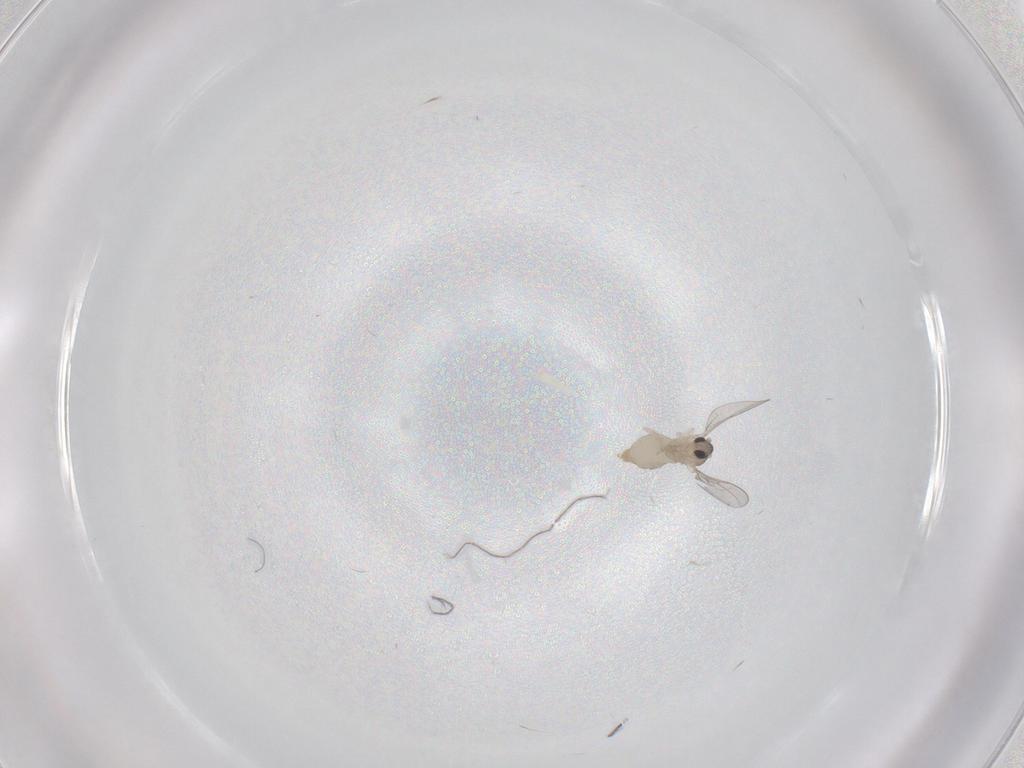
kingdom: Animalia
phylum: Arthropoda
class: Insecta
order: Diptera
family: Cecidomyiidae
